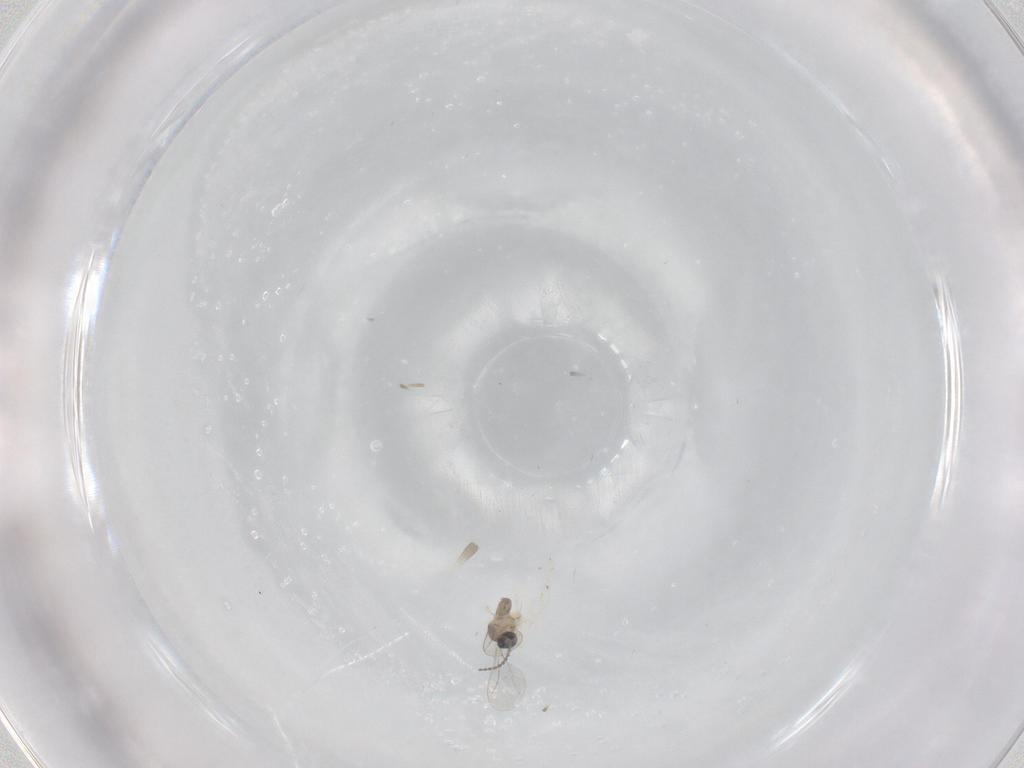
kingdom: Animalia
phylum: Arthropoda
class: Insecta
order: Diptera
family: Cecidomyiidae
